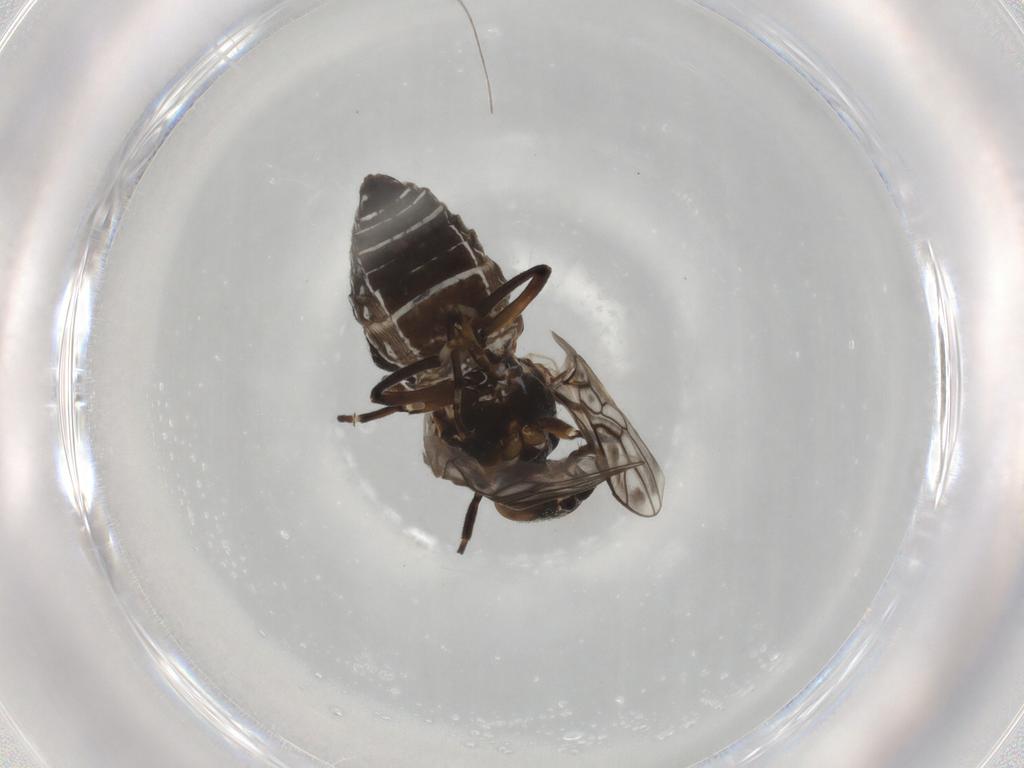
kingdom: Animalia
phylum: Arthropoda
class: Insecta
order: Diptera
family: Scenopinidae
